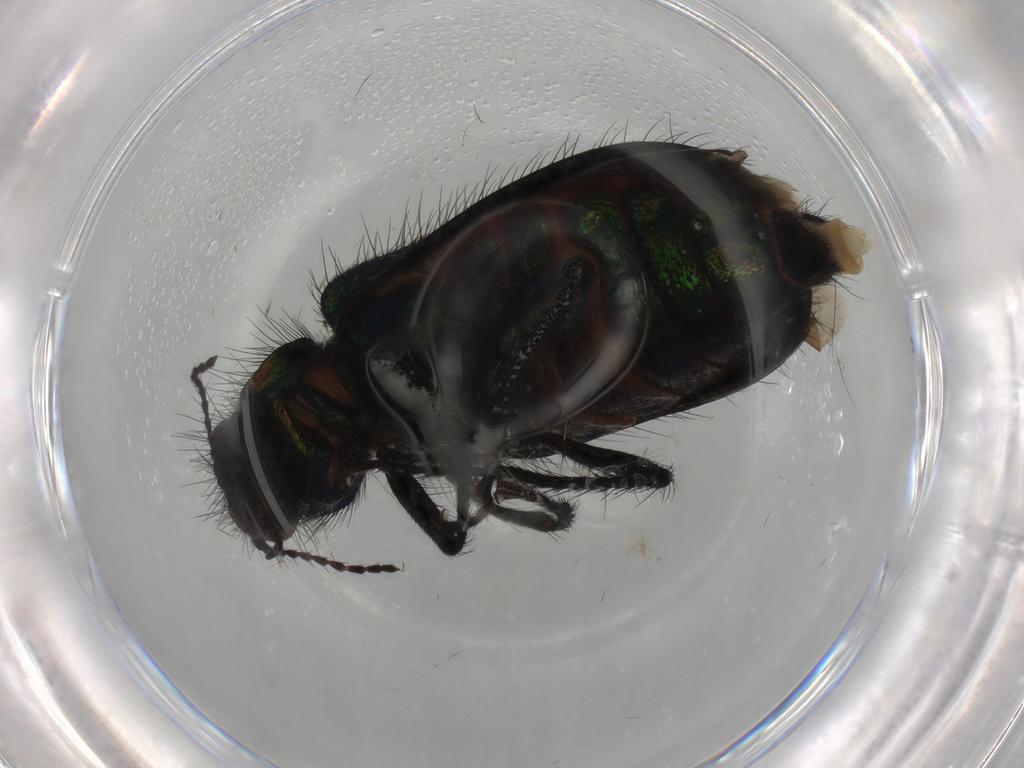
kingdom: Animalia
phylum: Arthropoda
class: Insecta
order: Coleoptera
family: Melyridae
